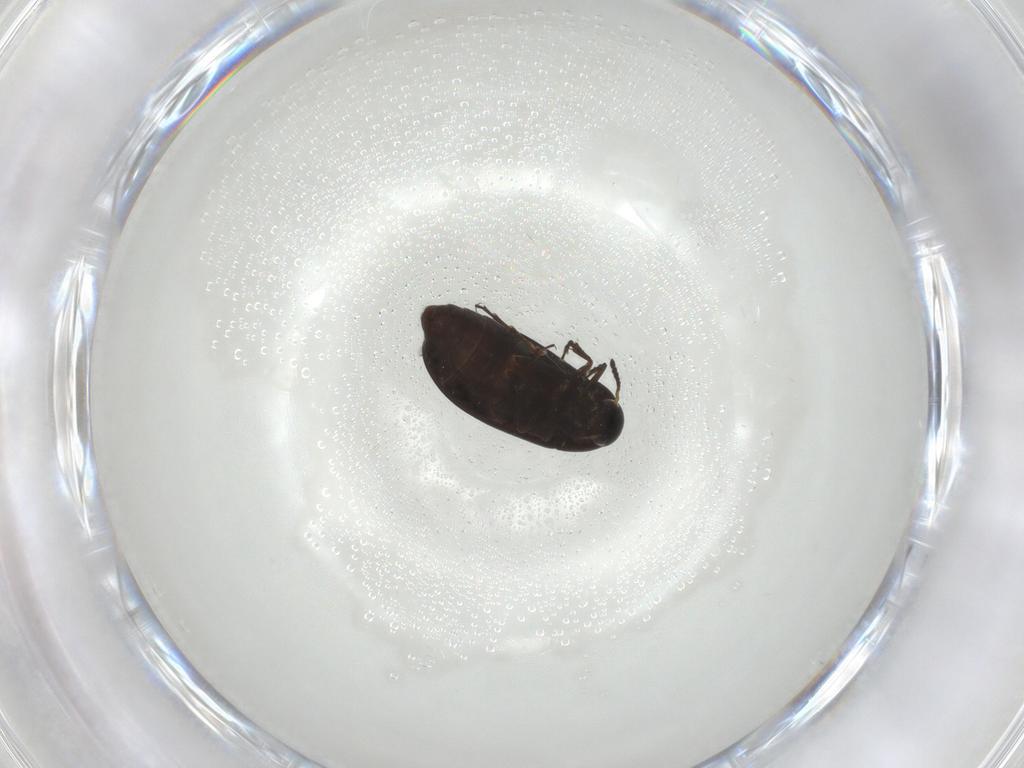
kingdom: Animalia
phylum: Arthropoda
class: Insecta
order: Coleoptera
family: Scraptiidae
